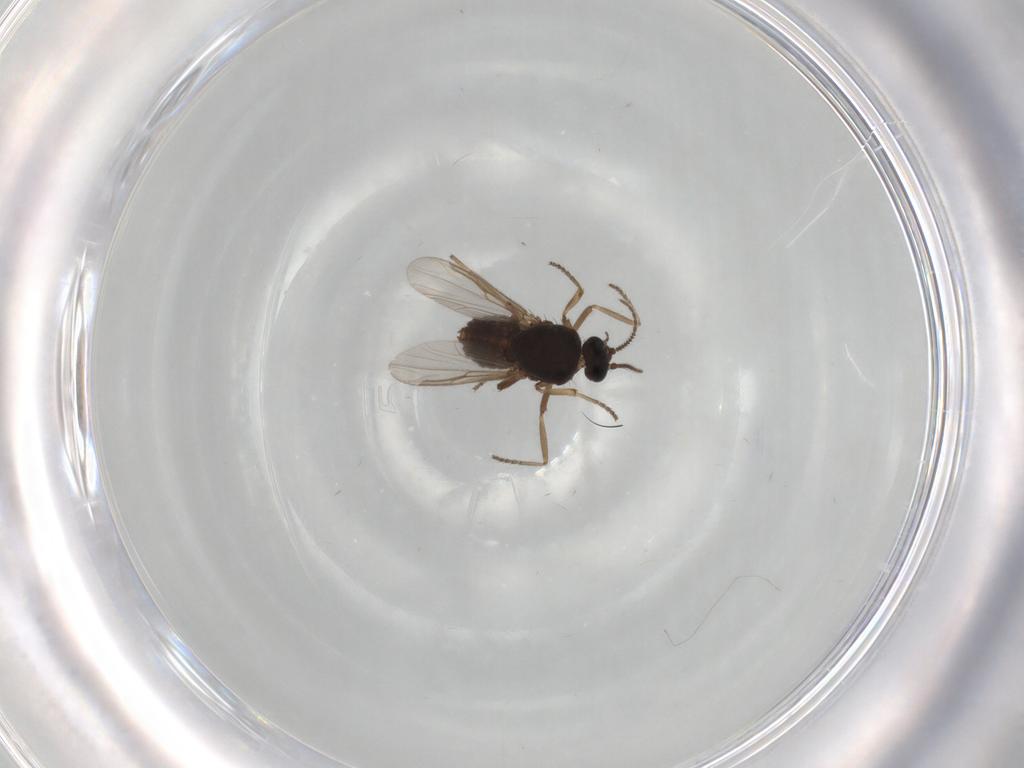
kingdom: Animalia
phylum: Arthropoda
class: Insecta
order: Diptera
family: Ceratopogonidae
